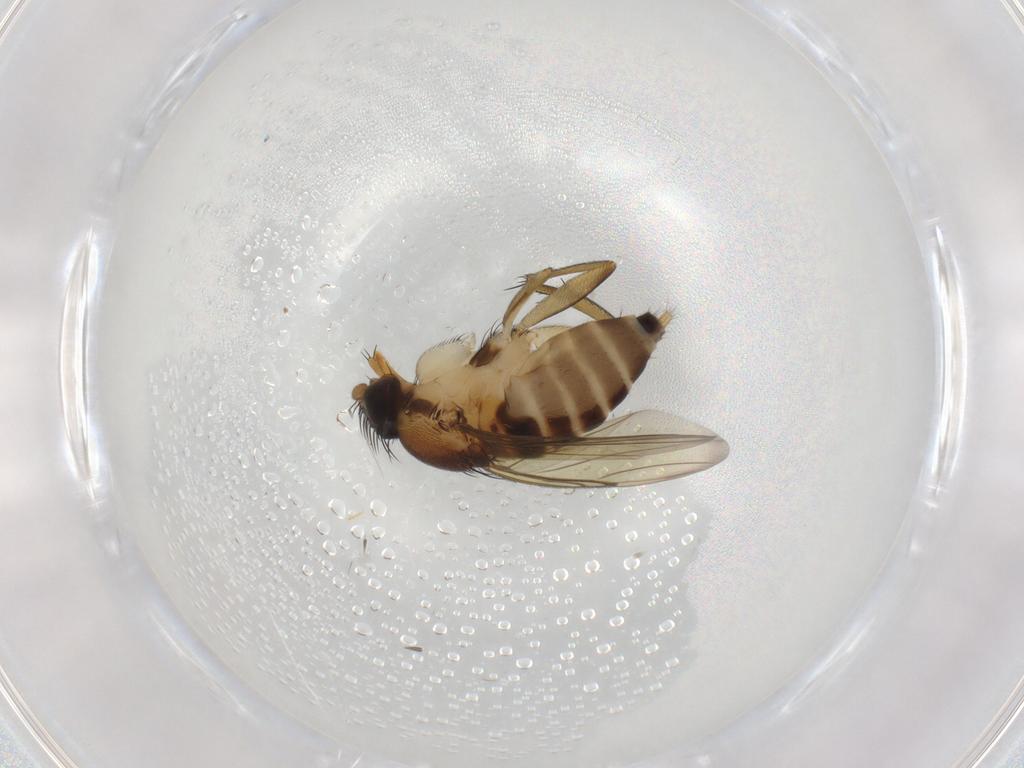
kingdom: Animalia
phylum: Arthropoda
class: Insecta
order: Diptera
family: Phoridae
